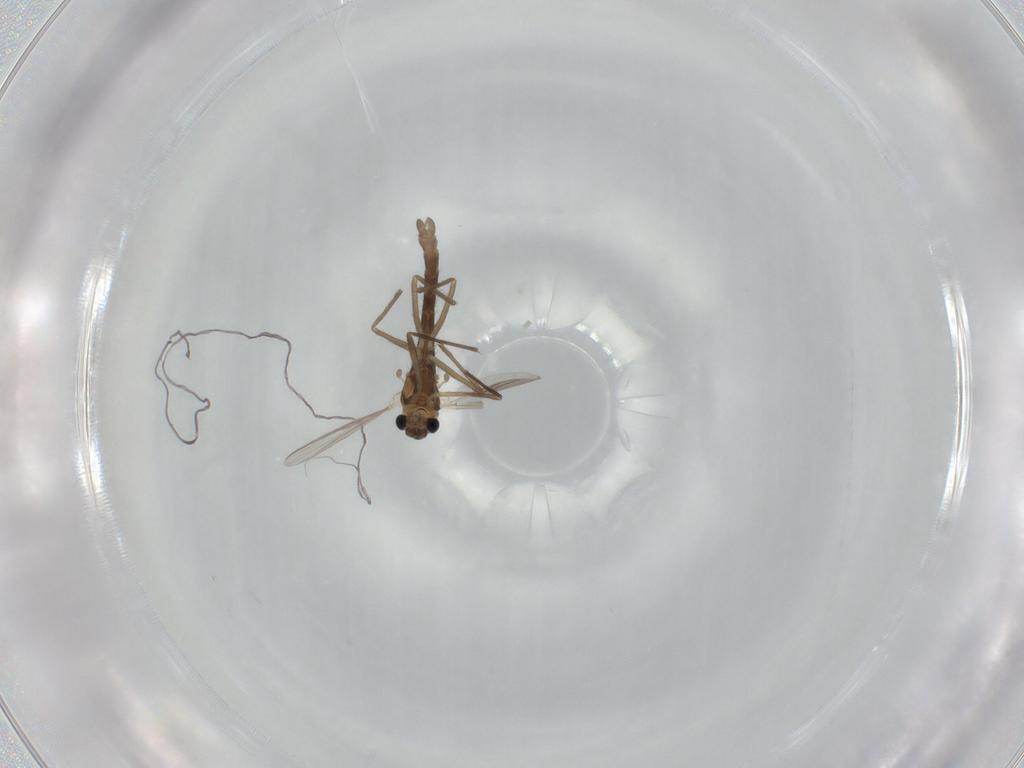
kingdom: Animalia
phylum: Arthropoda
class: Insecta
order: Diptera
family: Chironomidae
